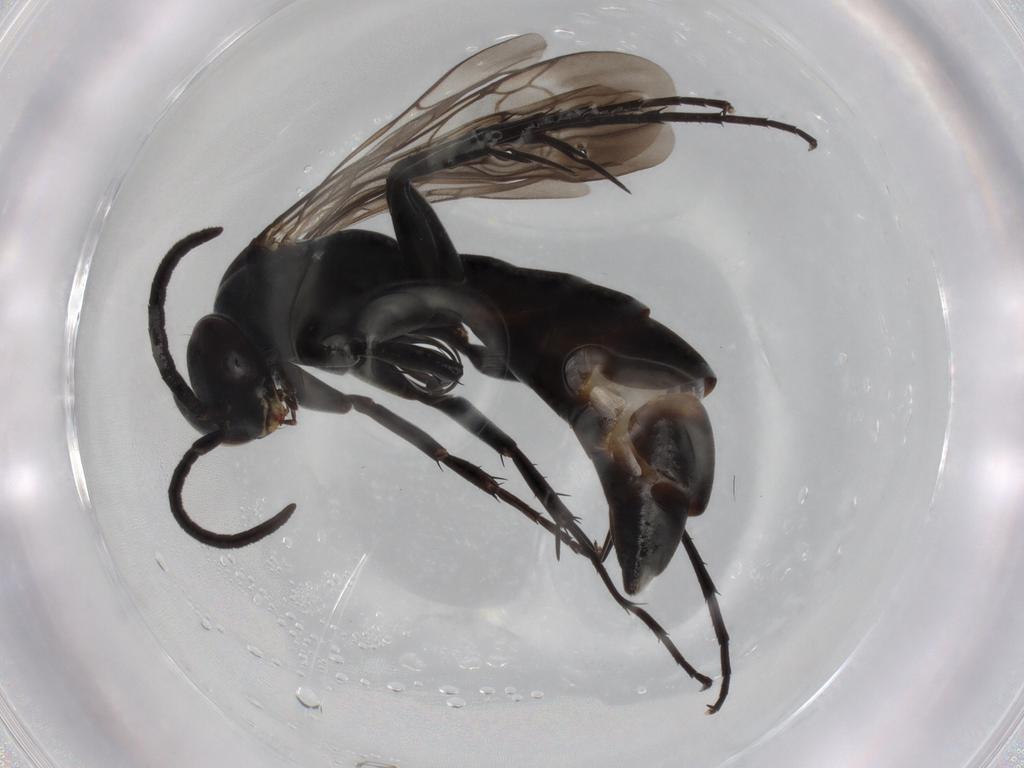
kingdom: Animalia
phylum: Arthropoda
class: Insecta
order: Hymenoptera
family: Pompilidae
